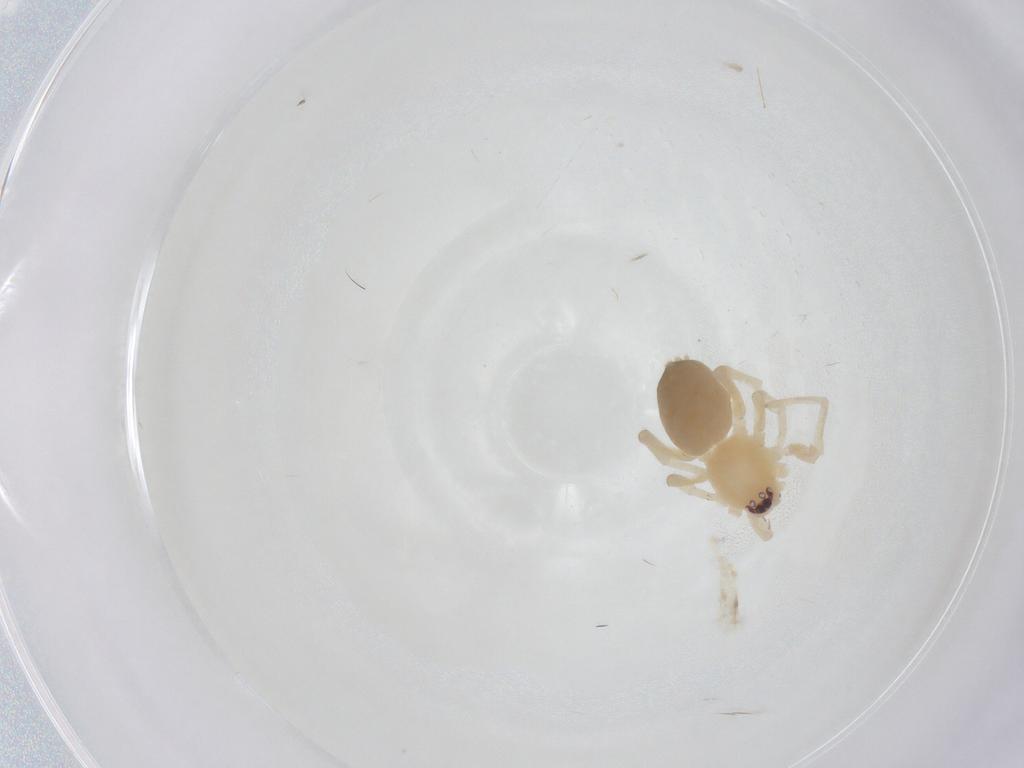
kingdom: Animalia
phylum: Arthropoda
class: Arachnida
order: Araneae
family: Corinnidae
